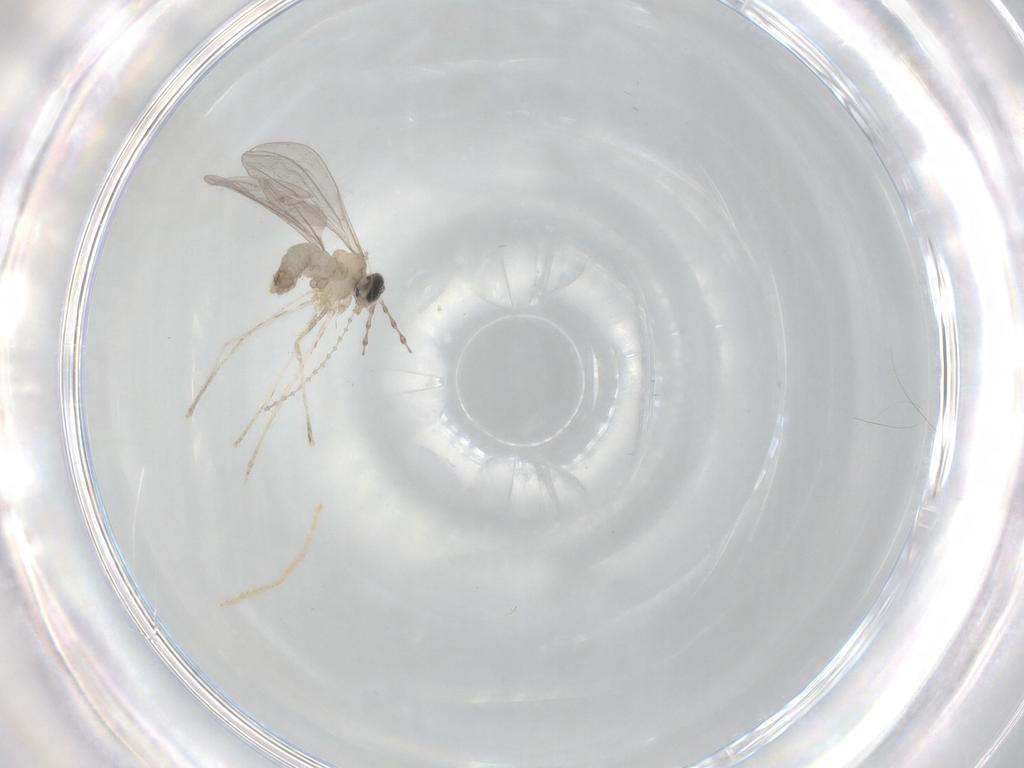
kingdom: Animalia
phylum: Arthropoda
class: Insecta
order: Diptera
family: Cecidomyiidae
